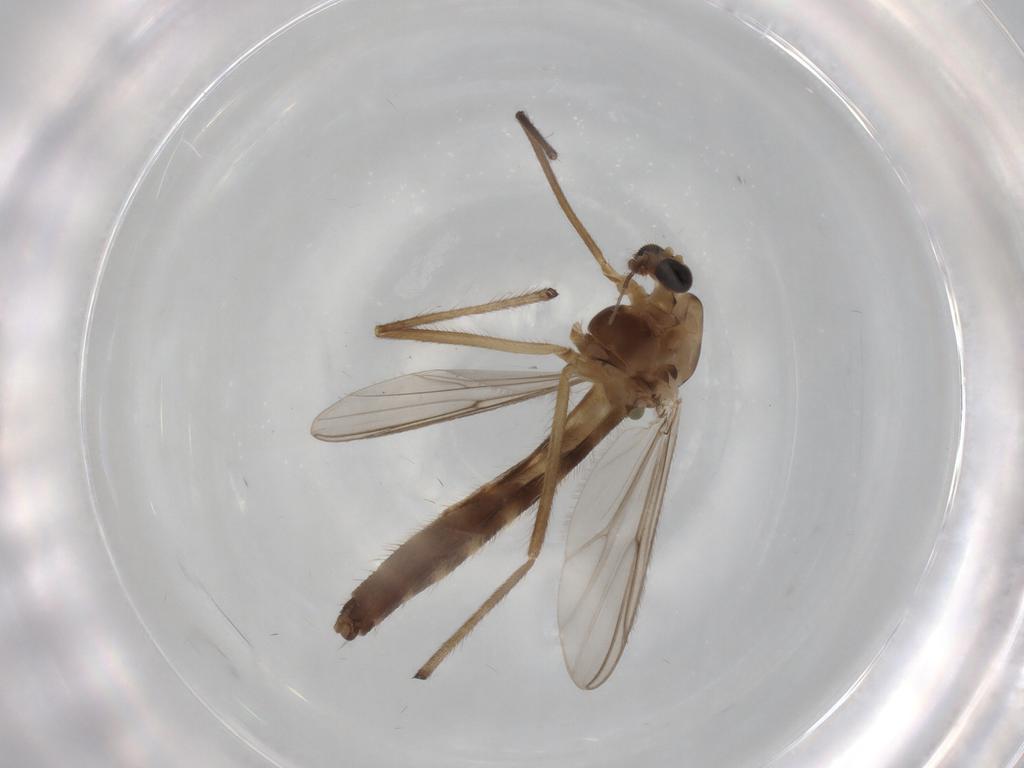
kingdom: Animalia
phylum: Arthropoda
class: Insecta
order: Diptera
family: Chironomidae
